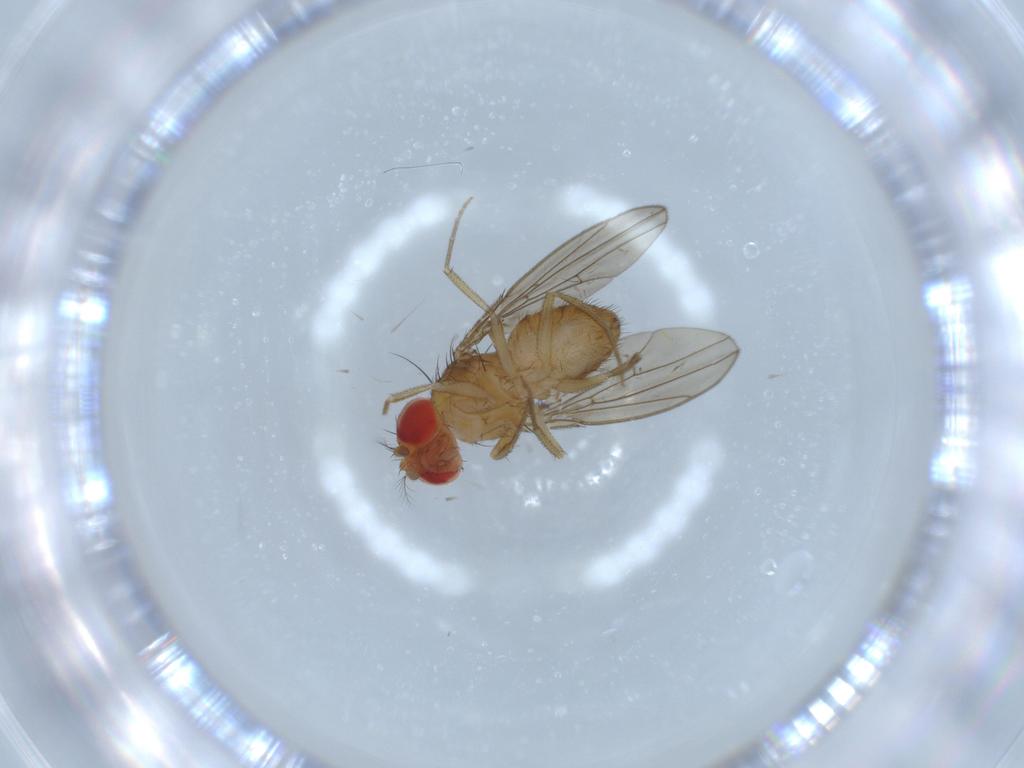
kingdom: Animalia
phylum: Arthropoda
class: Insecta
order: Diptera
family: Drosophilidae
